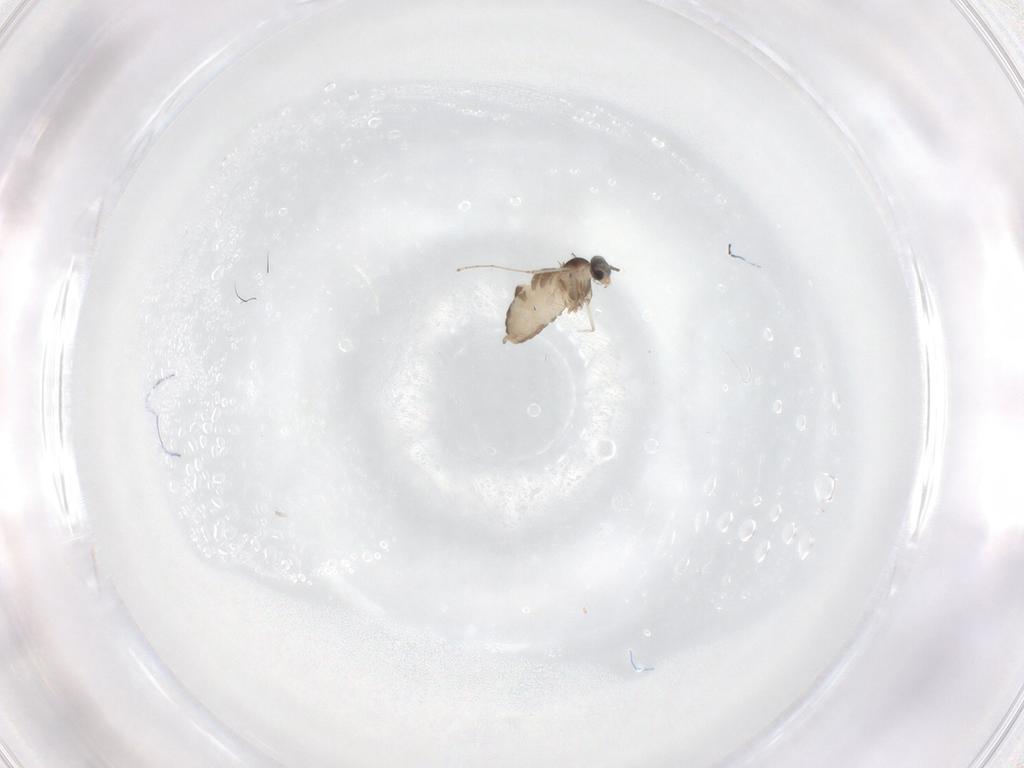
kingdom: Animalia
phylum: Arthropoda
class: Insecta
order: Diptera
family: Cecidomyiidae
